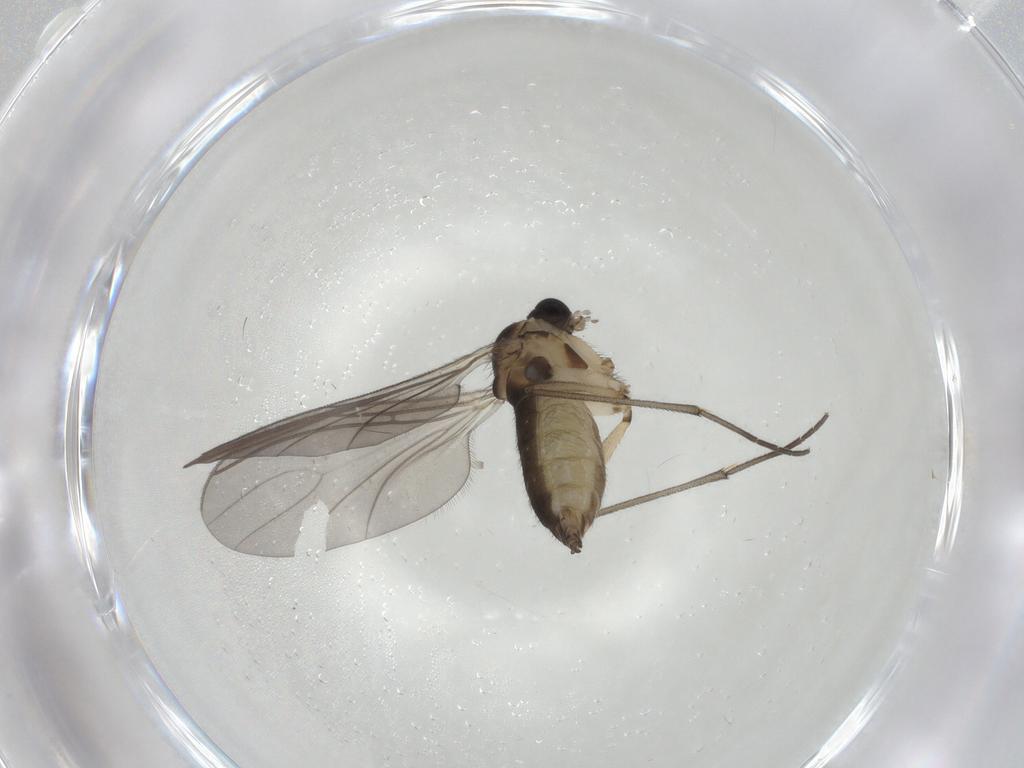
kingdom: Animalia
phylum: Arthropoda
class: Insecta
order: Diptera
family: Sciaridae
